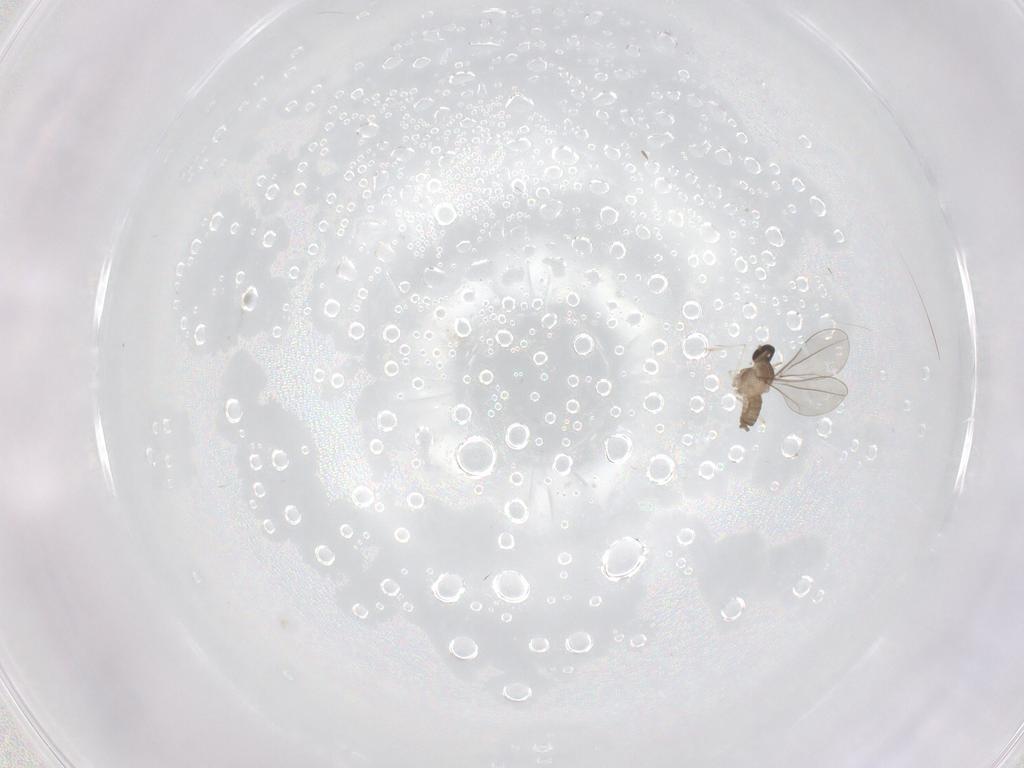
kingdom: Animalia
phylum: Arthropoda
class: Insecta
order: Diptera
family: Cecidomyiidae
